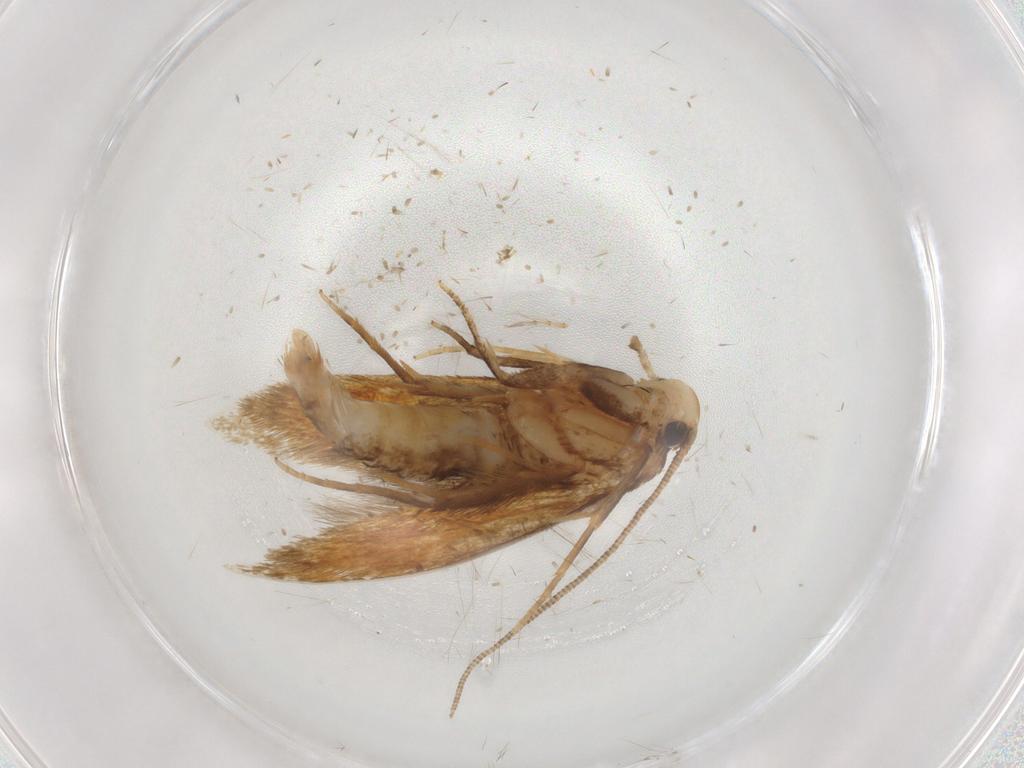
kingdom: Animalia
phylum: Arthropoda
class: Insecta
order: Lepidoptera
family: Tineidae
